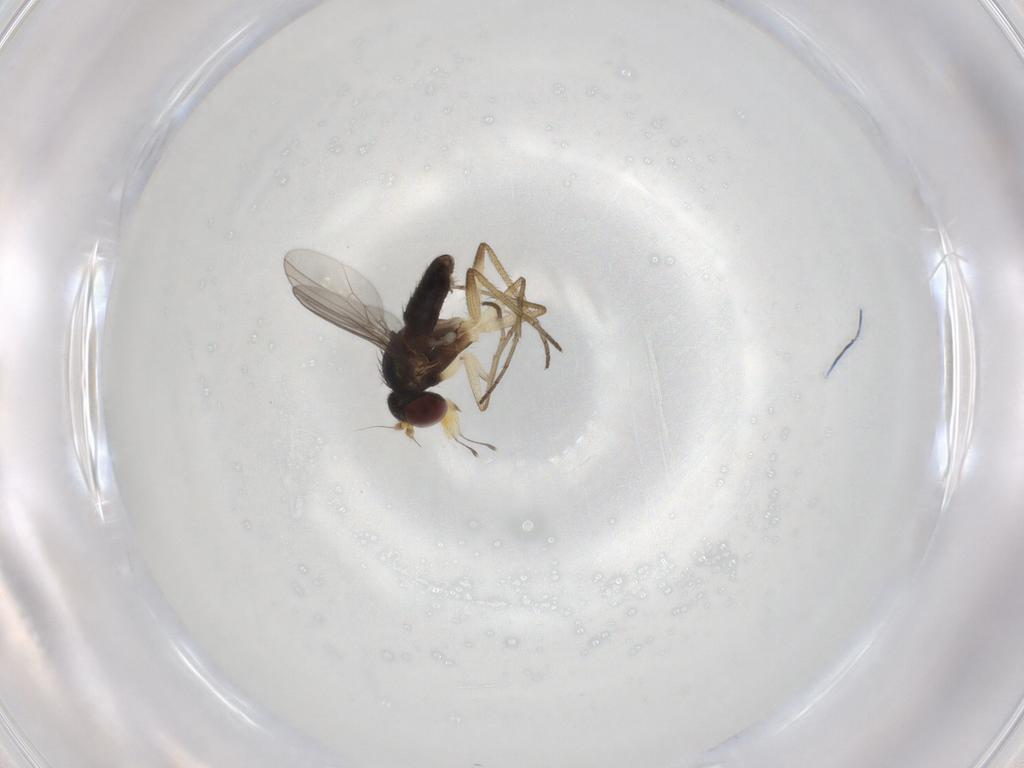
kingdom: Animalia
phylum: Arthropoda
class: Insecta
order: Diptera
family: Dolichopodidae
